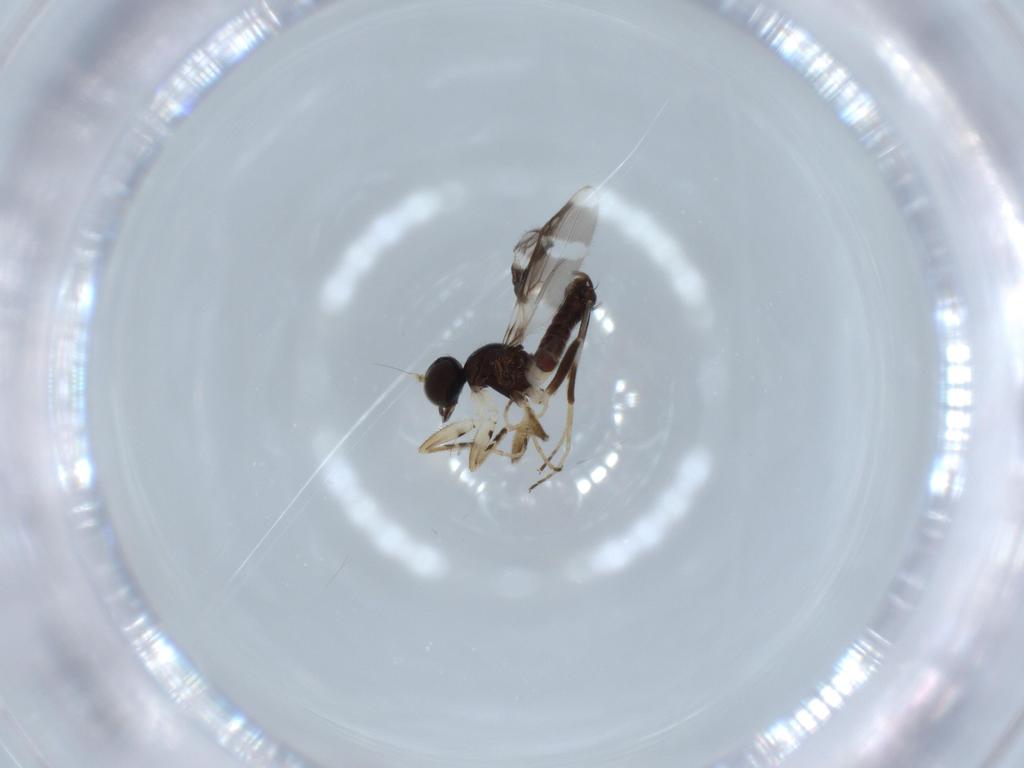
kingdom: Animalia
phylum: Arthropoda
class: Insecta
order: Diptera
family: Hybotidae
